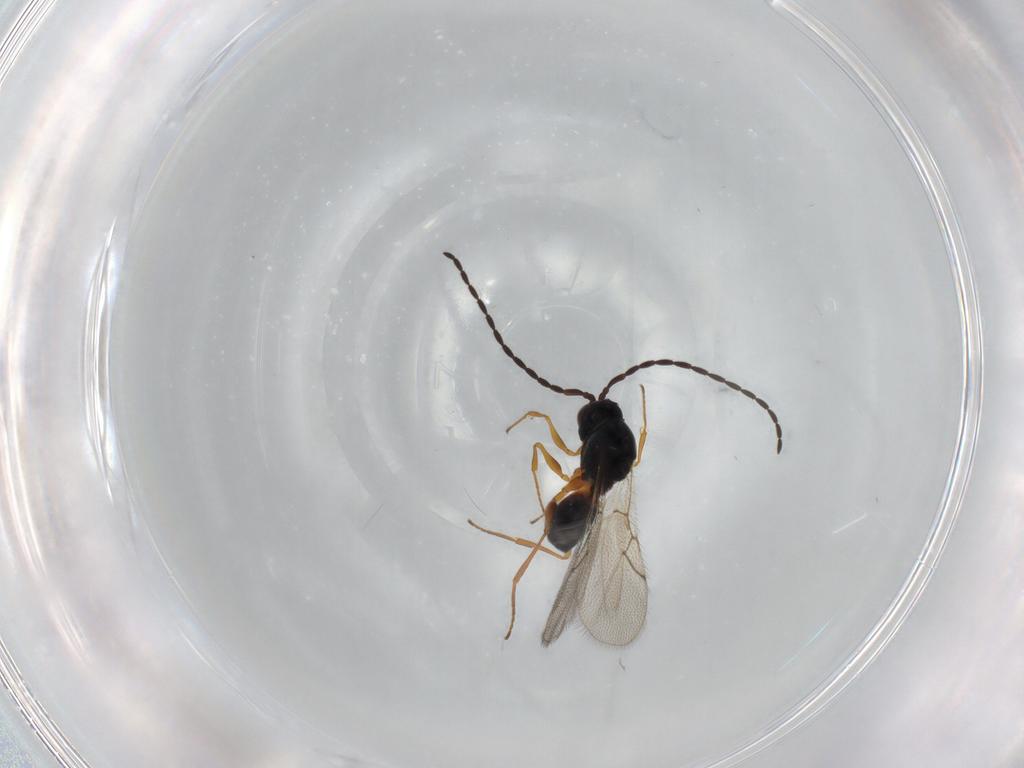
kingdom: Animalia
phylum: Arthropoda
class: Insecta
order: Hymenoptera
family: Figitidae
